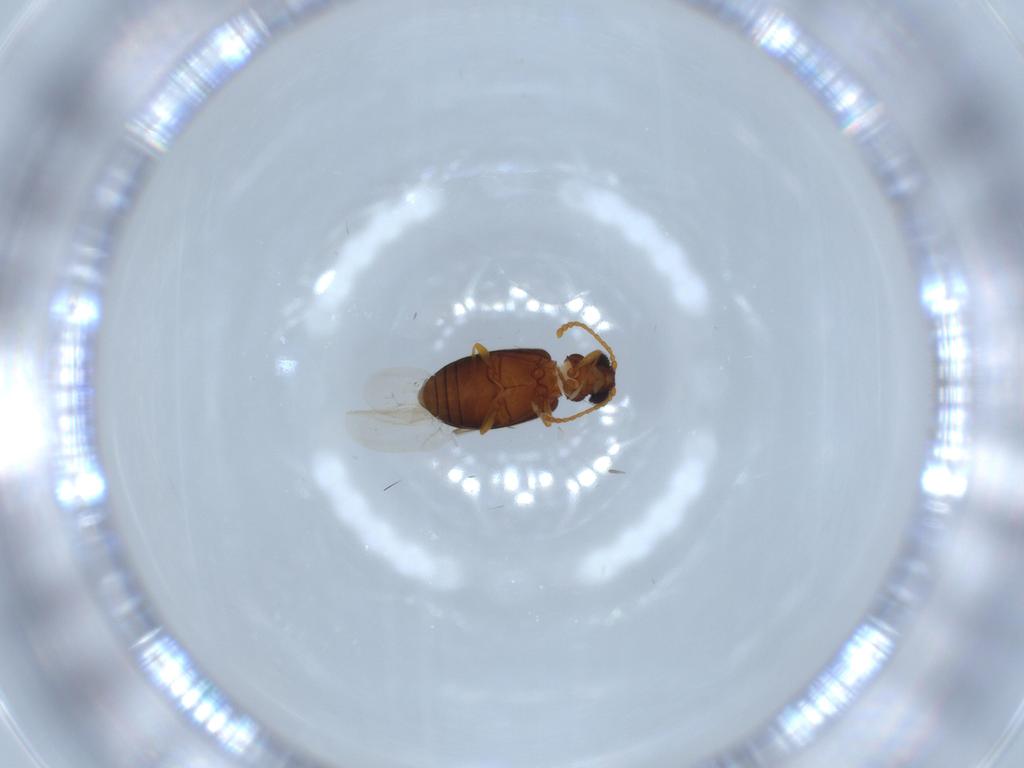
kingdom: Animalia
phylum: Arthropoda
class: Insecta
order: Coleoptera
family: Aderidae
